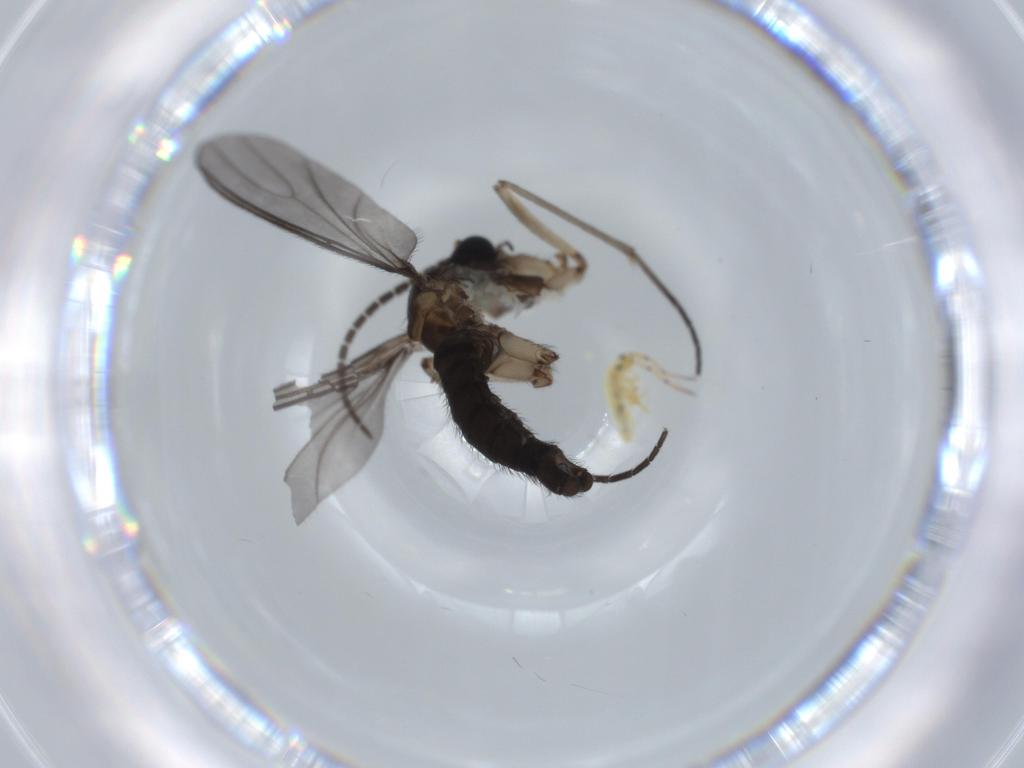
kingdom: Animalia
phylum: Arthropoda
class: Insecta
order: Diptera
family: Sciaridae
